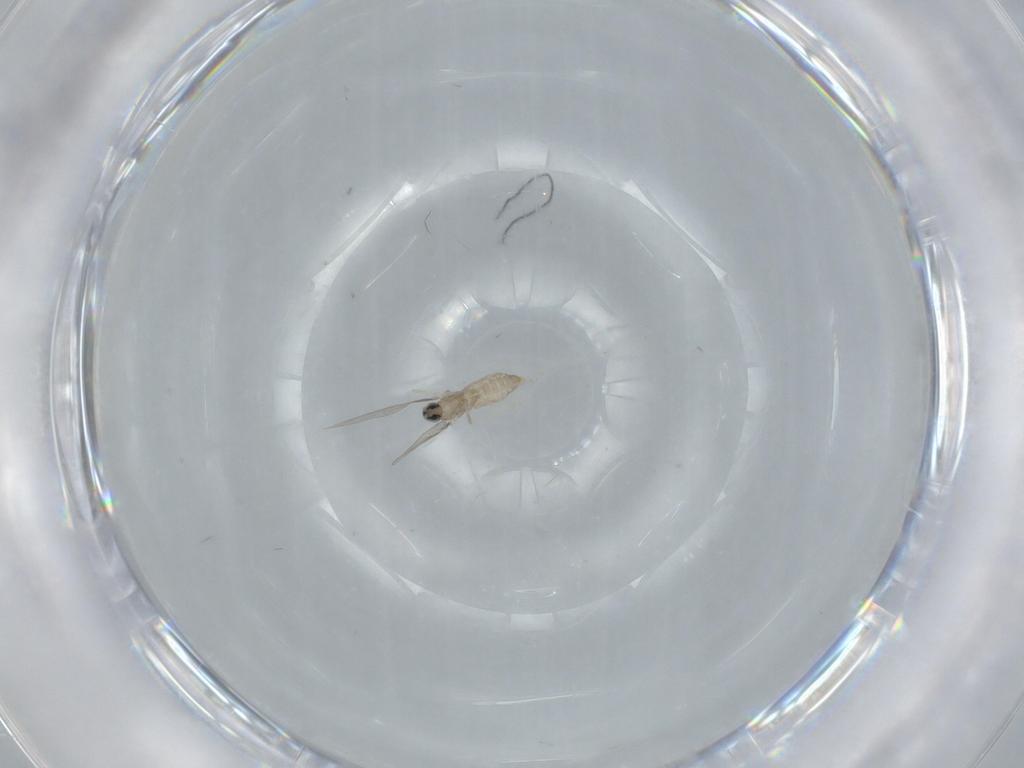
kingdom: Animalia
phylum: Arthropoda
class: Insecta
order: Diptera
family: Cecidomyiidae
